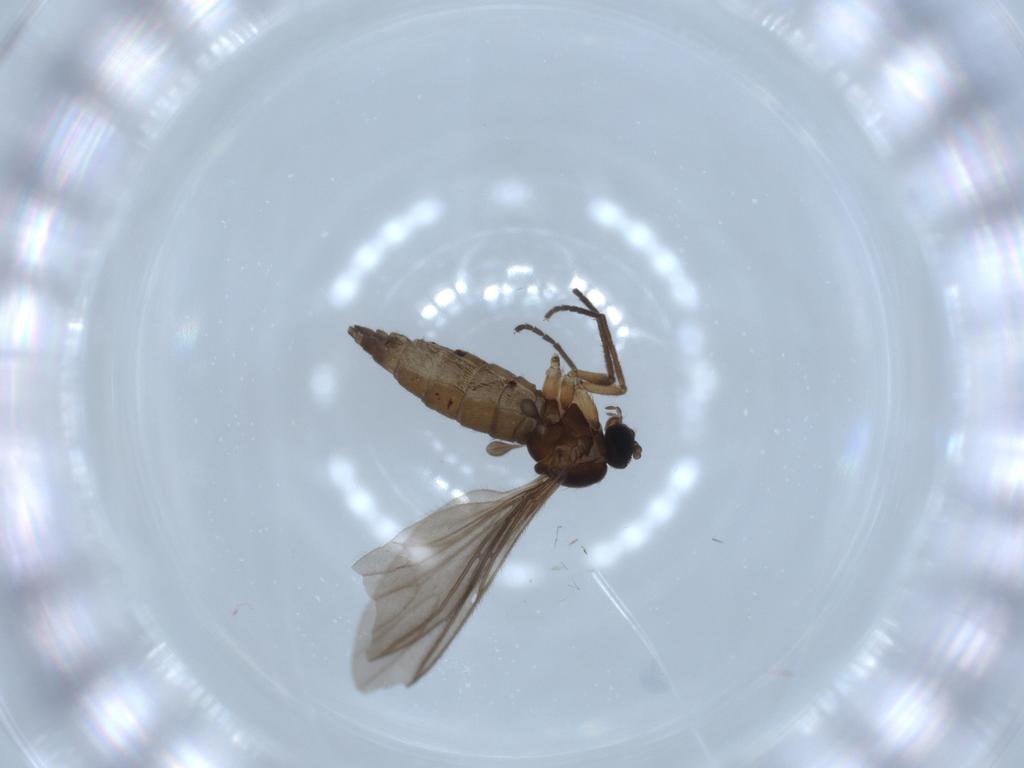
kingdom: Animalia
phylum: Arthropoda
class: Insecta
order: Diptera
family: Sciaridae
